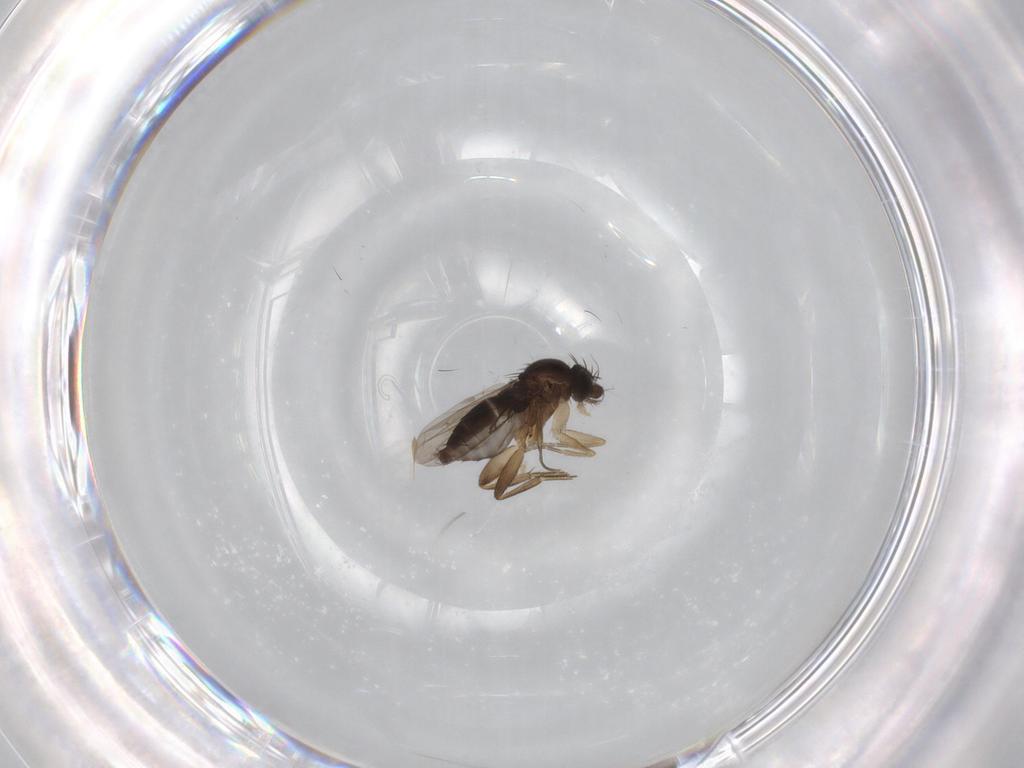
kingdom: Animalia
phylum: Arthropoda
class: Insecta
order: Diptera
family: Phoridae
